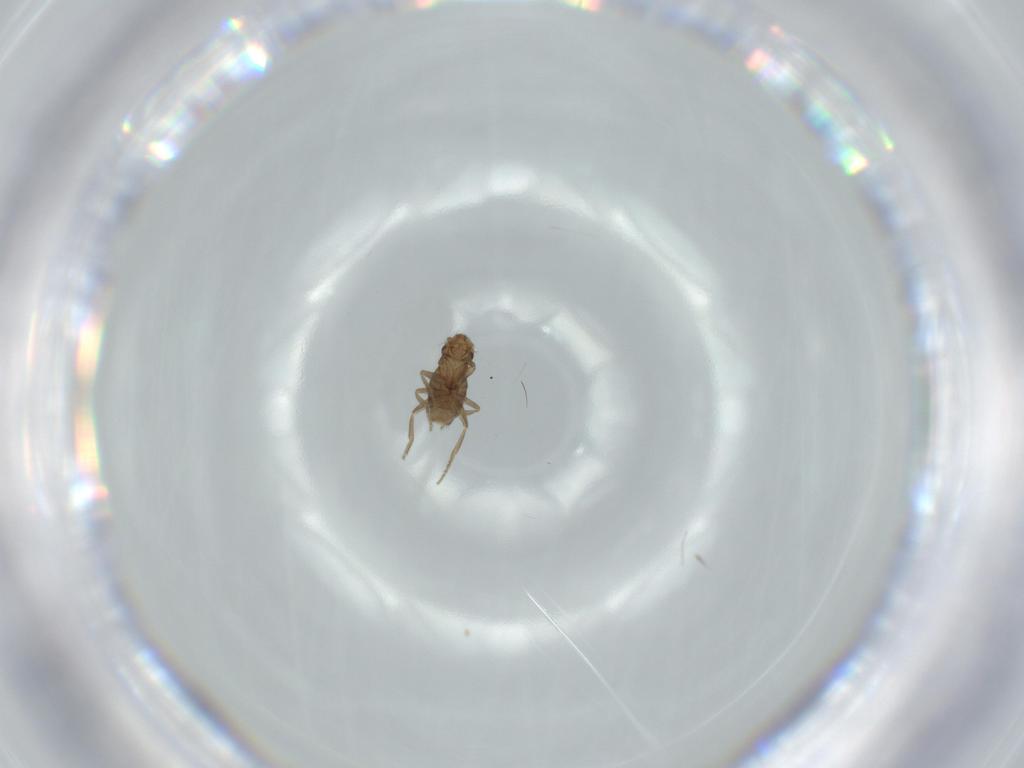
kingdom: Animalia
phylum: Arthropoda
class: Insecta
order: Diptera
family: Phoridae
